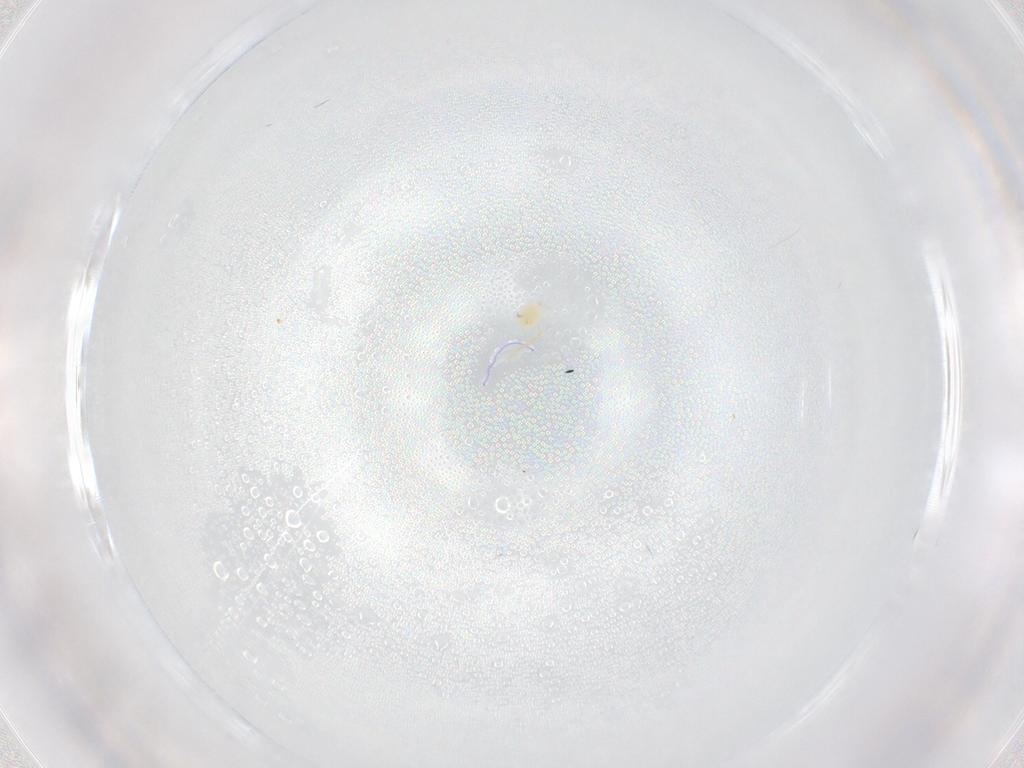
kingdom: Animalia
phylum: Arthropoda
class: Arachnida
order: Trombidiformes
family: Tetranychidae
